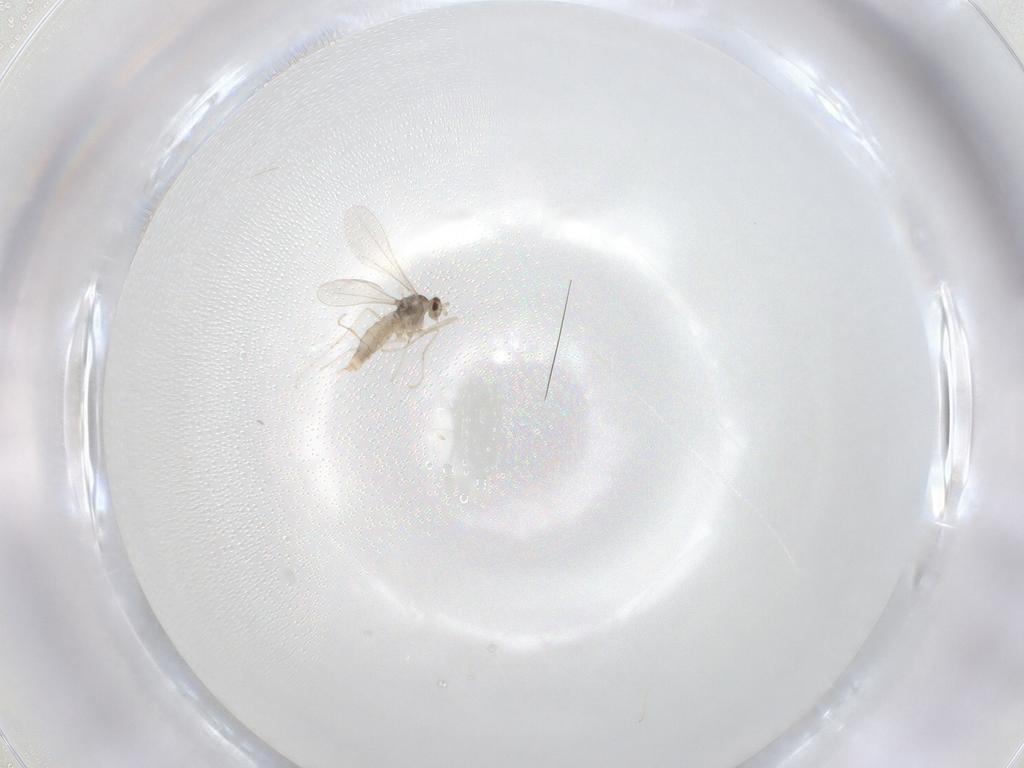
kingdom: Animalia
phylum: Arthropoda
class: Insecta
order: Diptera
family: Cecidomyiidae
